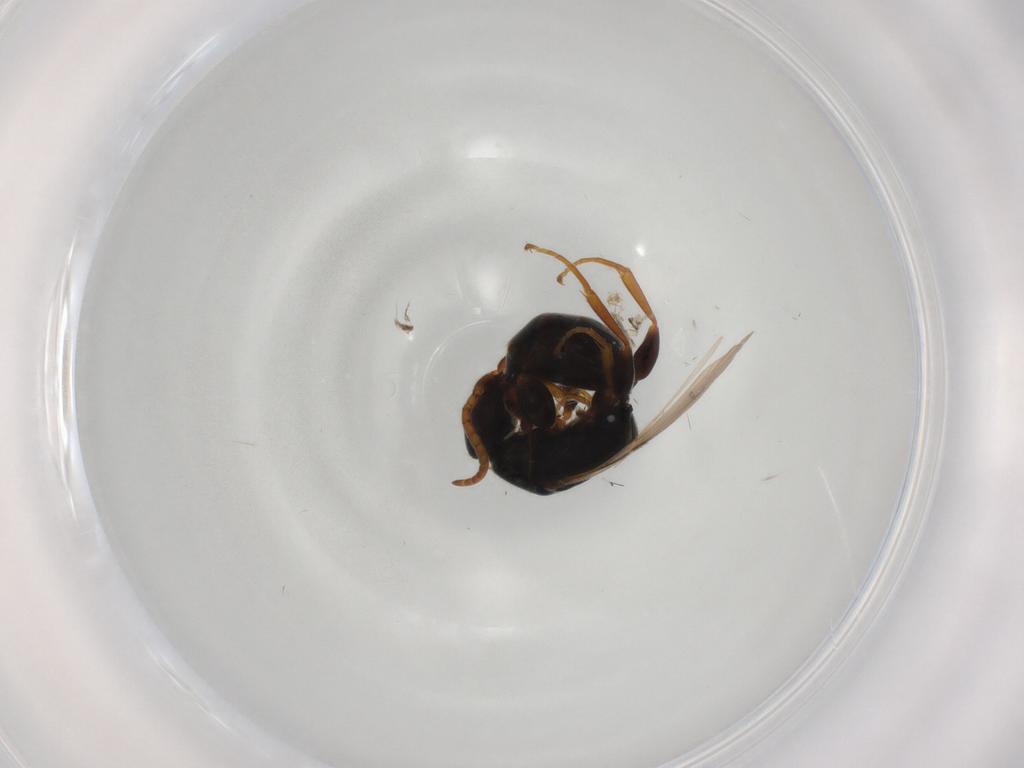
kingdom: Animalia
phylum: Arthropoda
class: Insecta
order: Hymenoptera
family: Bethylidae
